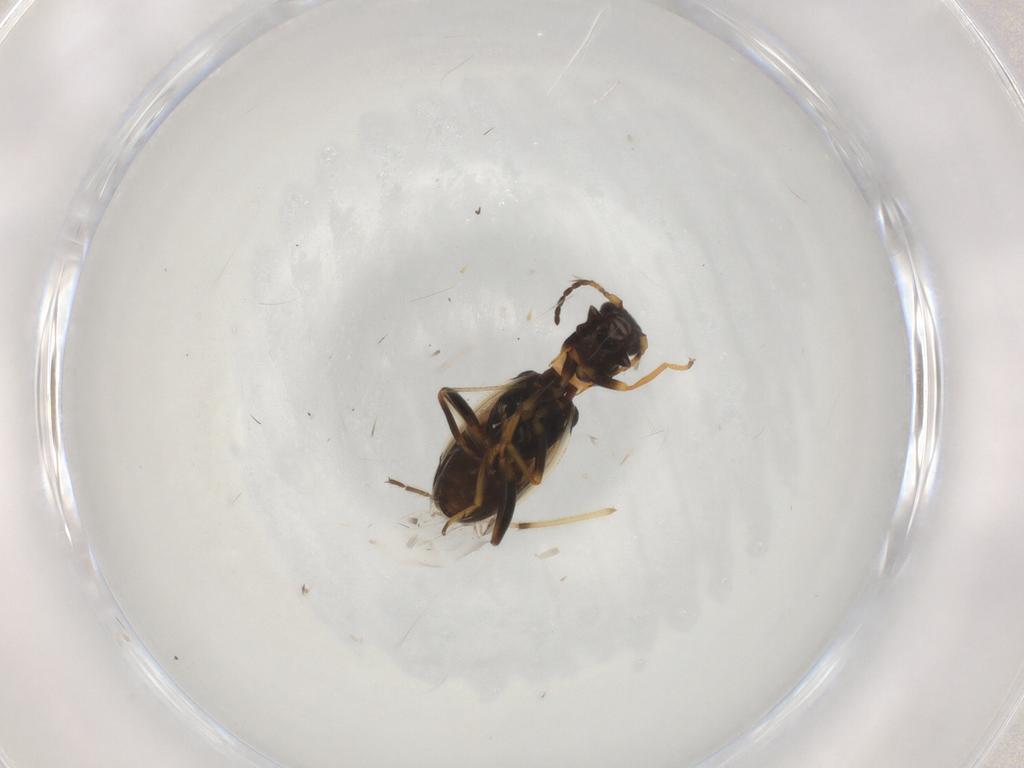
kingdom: Animalia
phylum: Arthropoda
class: Insecta
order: Coleoptera
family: Melyridae
